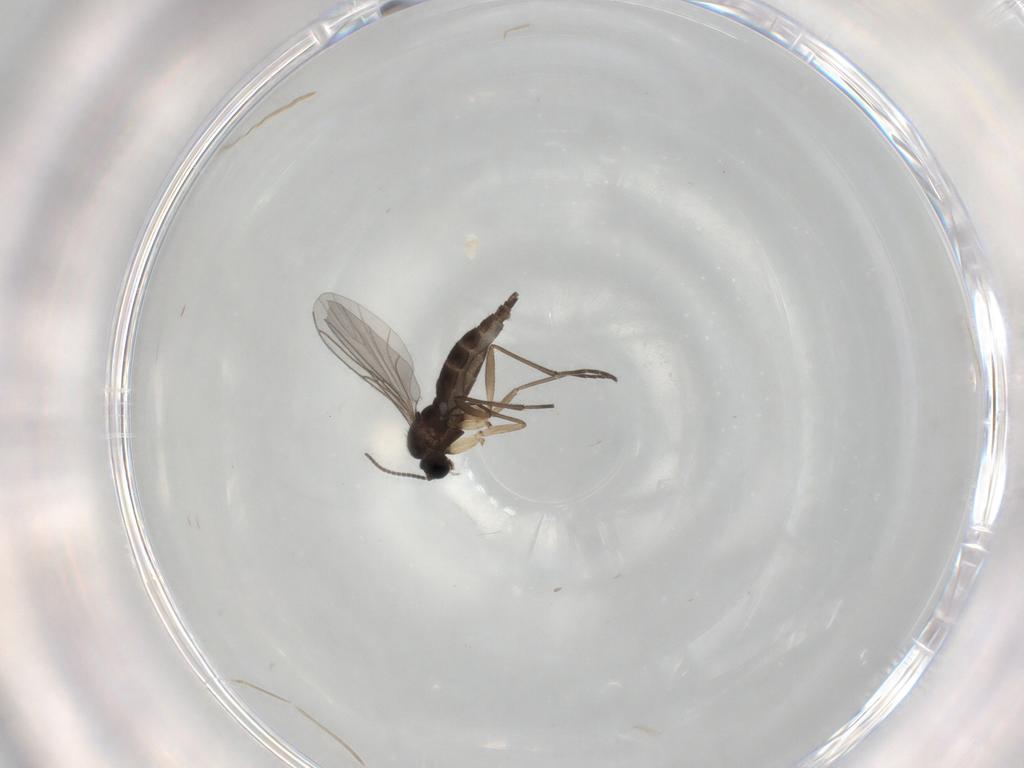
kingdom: Animalia
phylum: Arthropoda
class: Insecta
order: Diptera
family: Sciaridae
